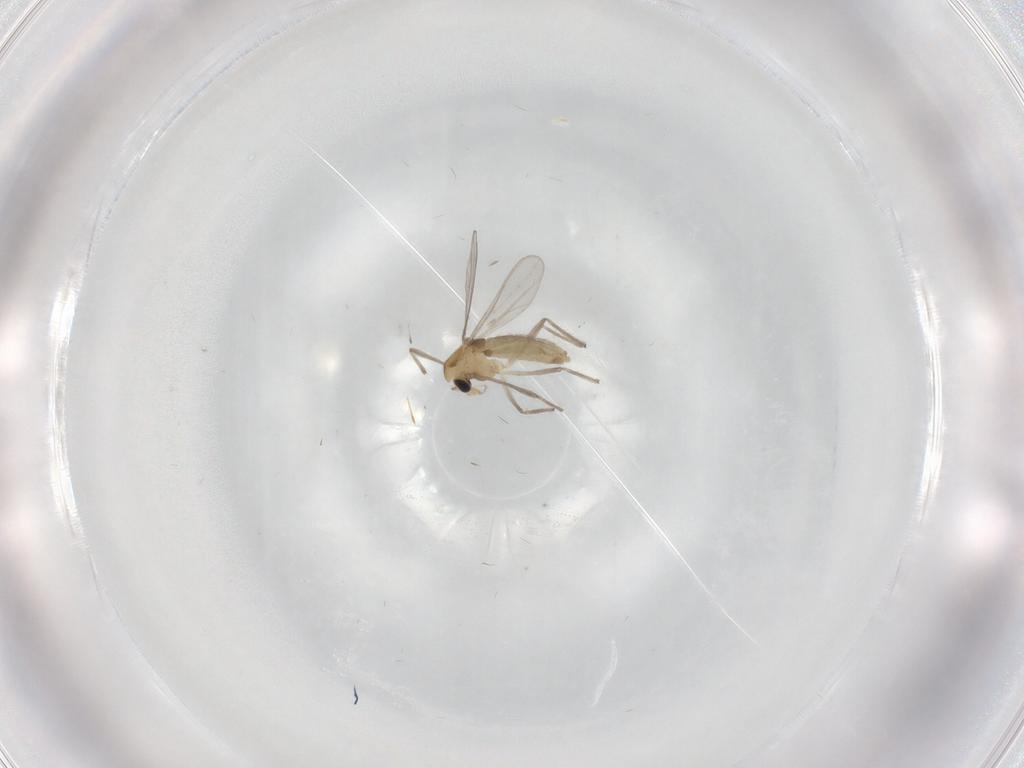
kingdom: Animalia
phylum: Arthropoda
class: Insecta
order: Diptera
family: Chironomidae
